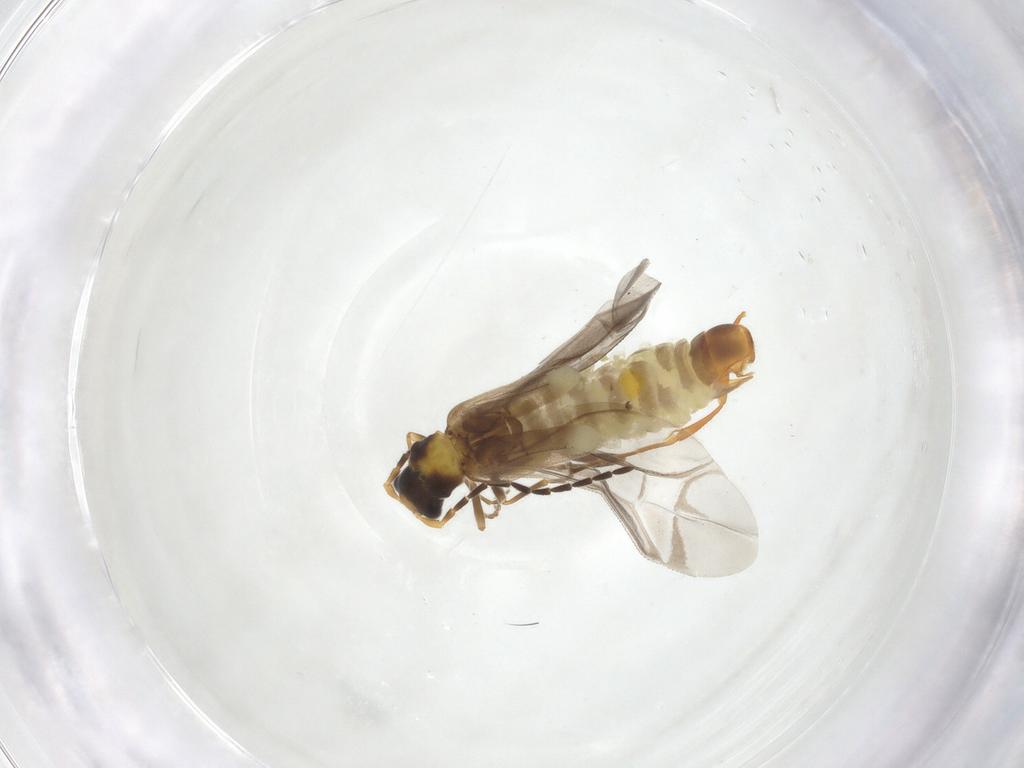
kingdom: Animalia
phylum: Arthropoda
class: Insecta
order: Coleoptera
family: Cantharidae
